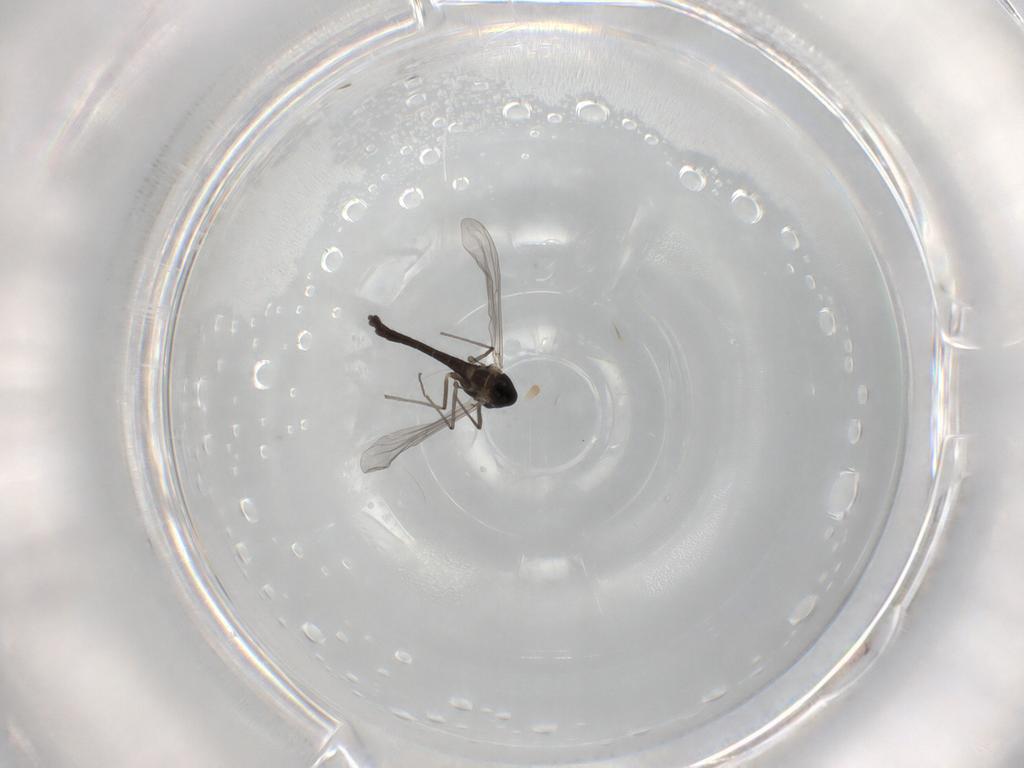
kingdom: Animalia
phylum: Arthropoda
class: Insecta
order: Diptera
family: Chironomidae
